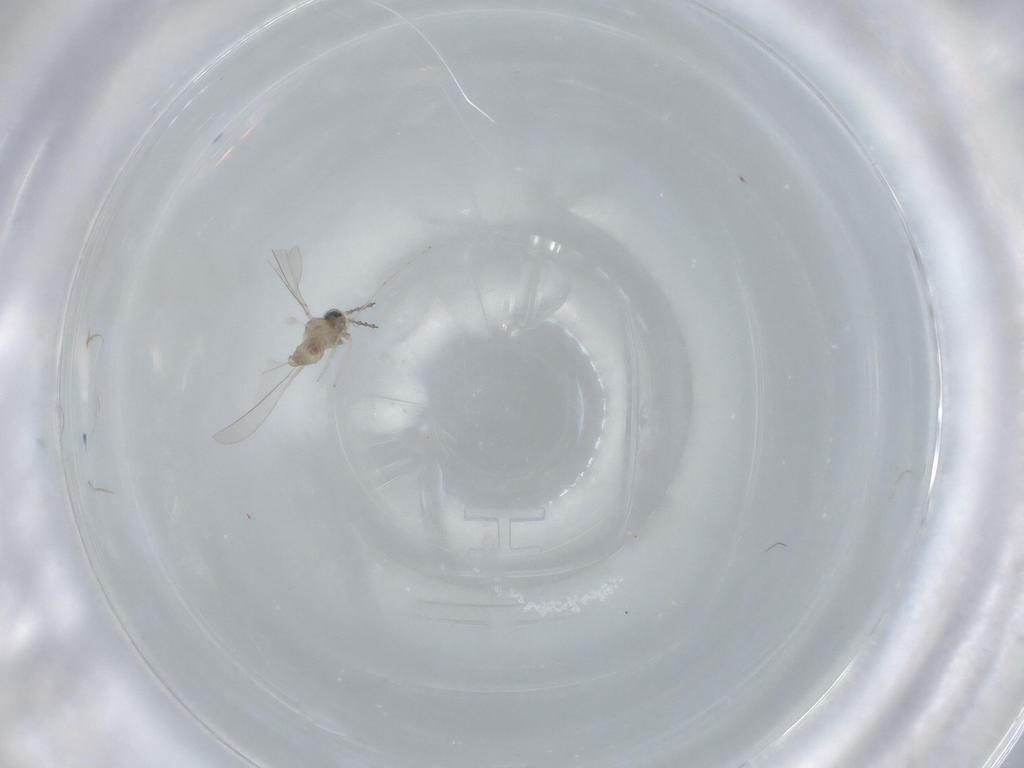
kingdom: Animalia
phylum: Arthropoda
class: Insecta
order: Diptera
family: Cecidomyiidae
